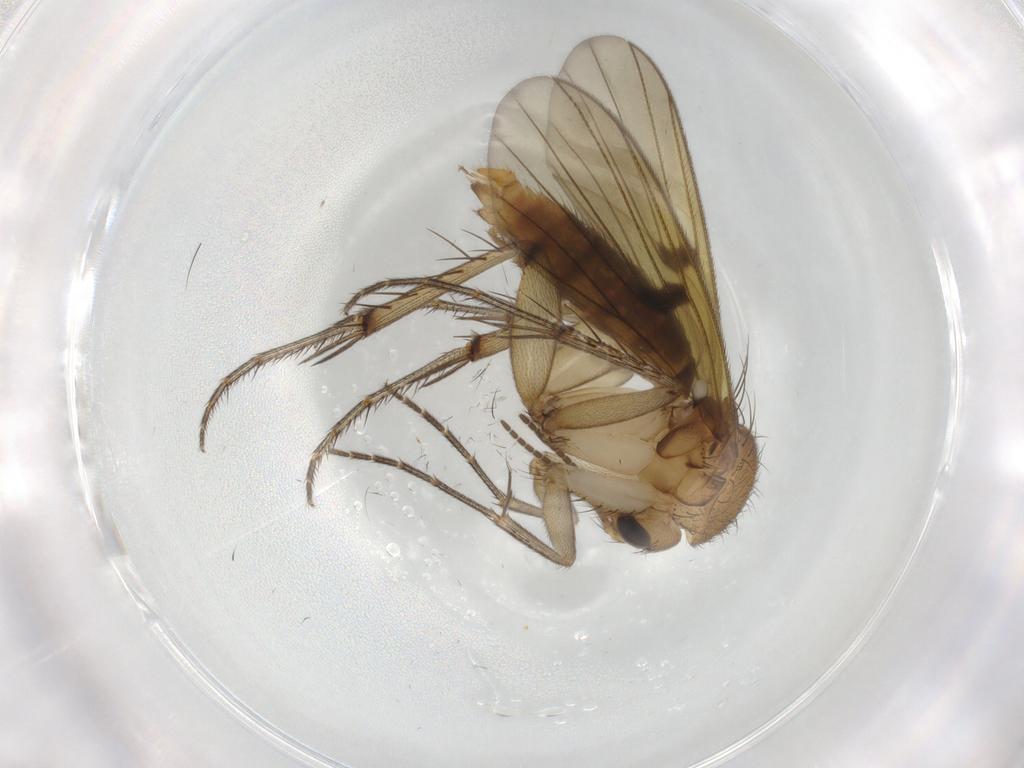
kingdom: Animalia
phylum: Arthropoda
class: Insecta
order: Diptera
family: Mycetophilidae
